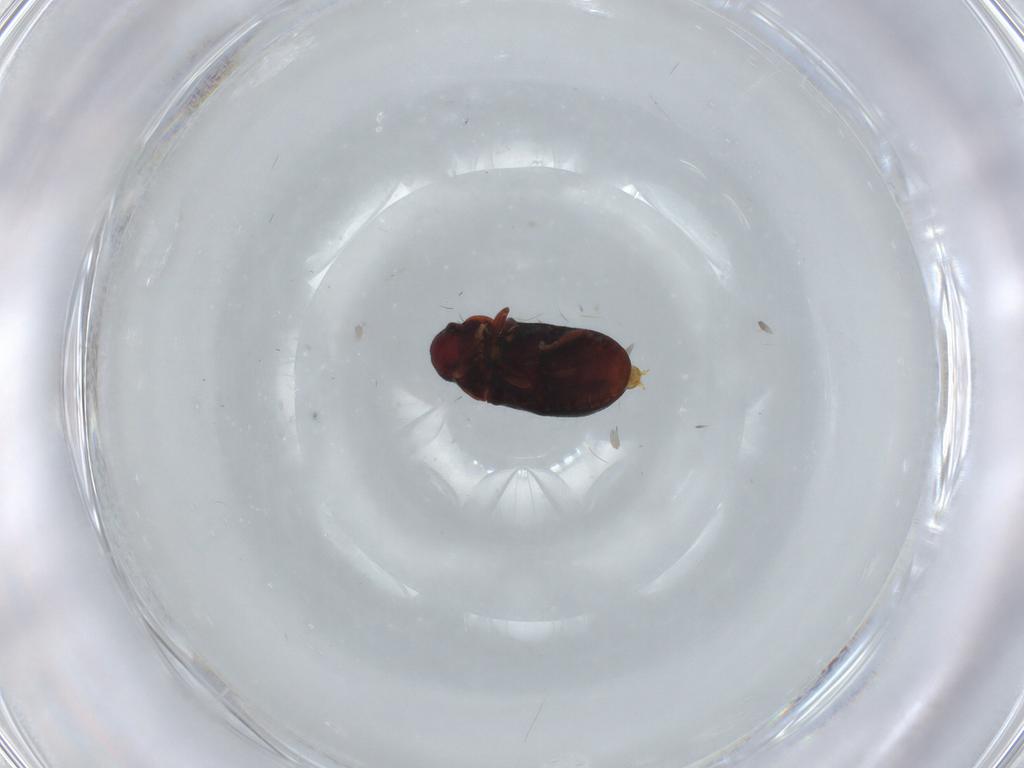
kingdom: Animalia
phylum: Arthropoda
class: Insecta
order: Coleoptera
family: Ptinidae
